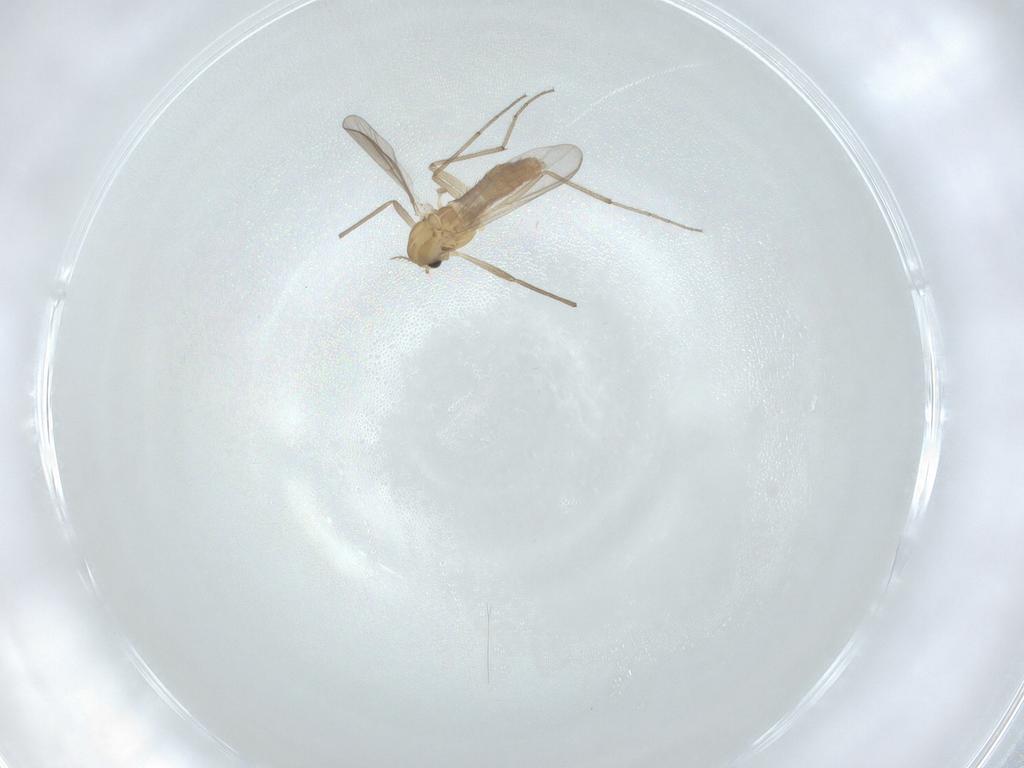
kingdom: Animalia
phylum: Arthropoda
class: Insecta
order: Diptera
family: Chironomidae
